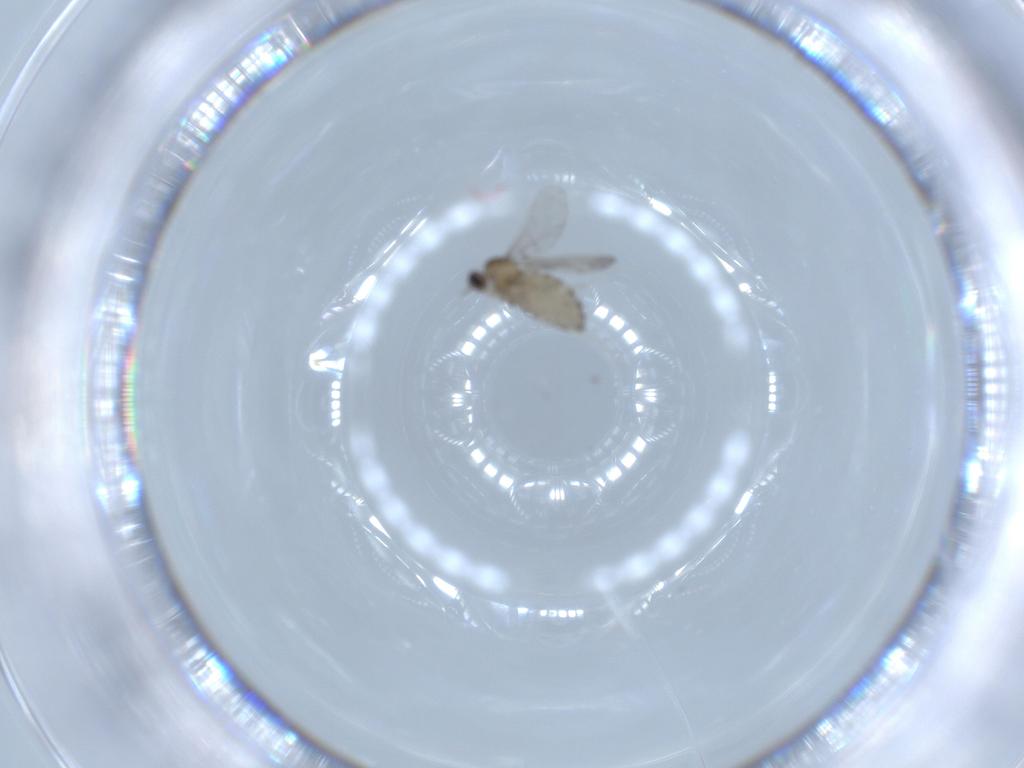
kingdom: Animalia
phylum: Arthropoda
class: Insecta
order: Diptera
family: Cecidomyiidae
